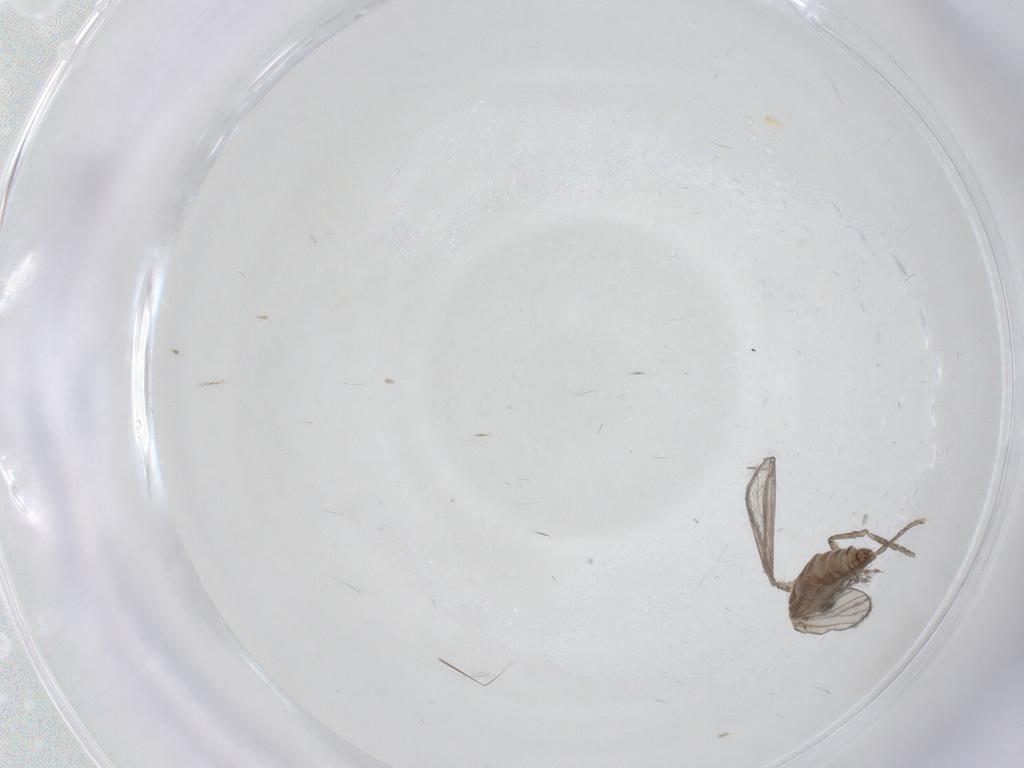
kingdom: Animalia
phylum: Arthropoda
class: Insecta
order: Diptera
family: Chironomidae
